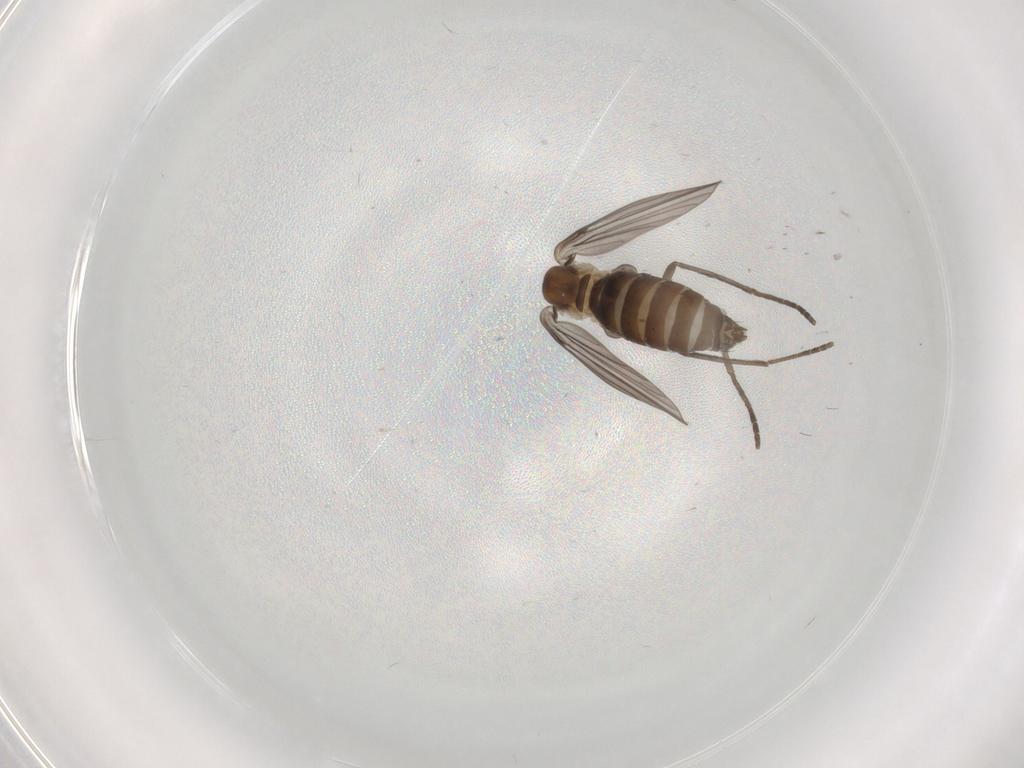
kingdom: Animalia
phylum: Arthropoda
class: Insecta
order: Diptera
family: Psychodidae
